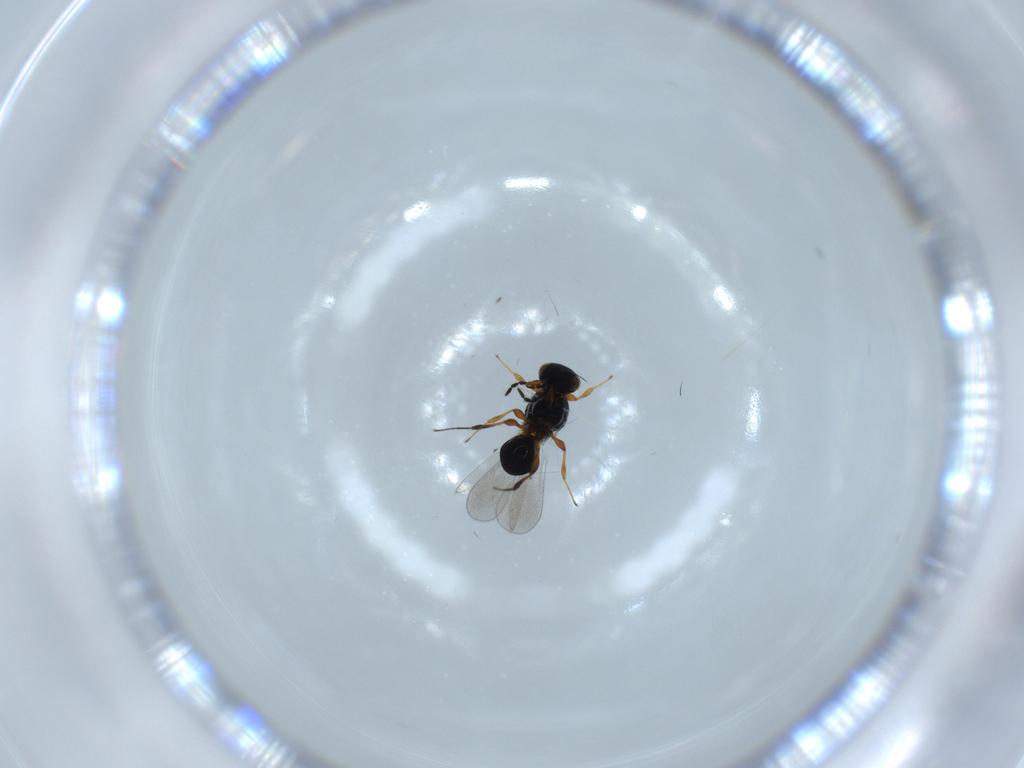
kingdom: Animalia
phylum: Arthropoda
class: Insecta
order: Hymenoptera
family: Platygastridae
